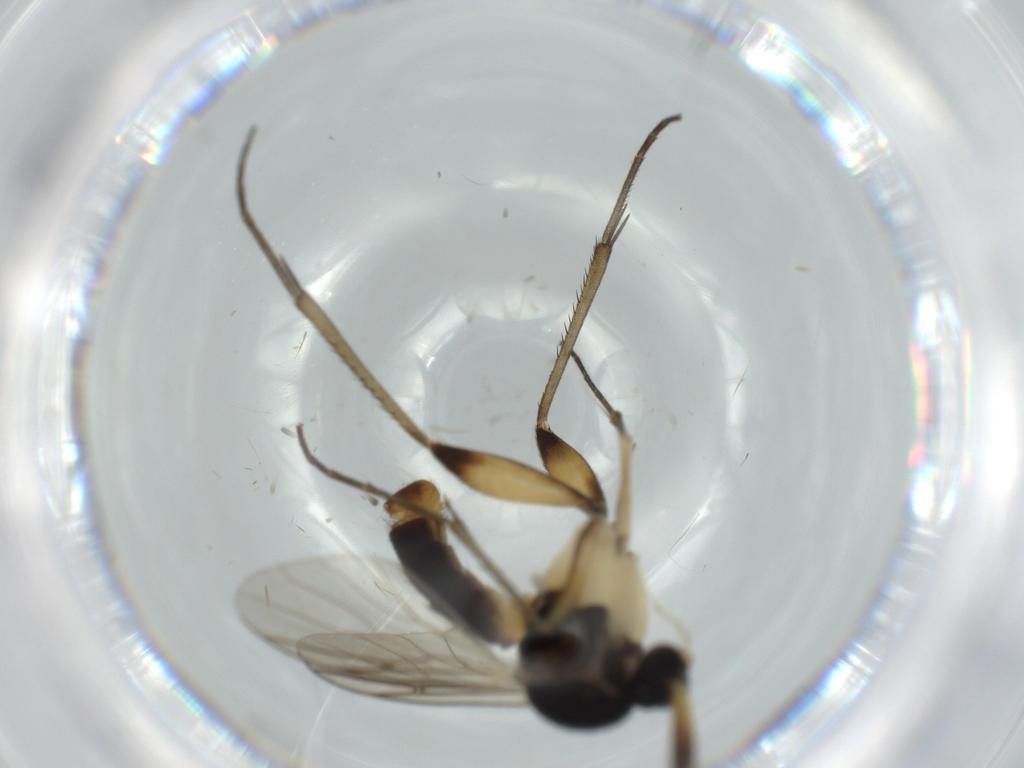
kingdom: Animalia
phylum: Arthropoda
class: Insecta
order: Diptera
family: Mycetophilidae
